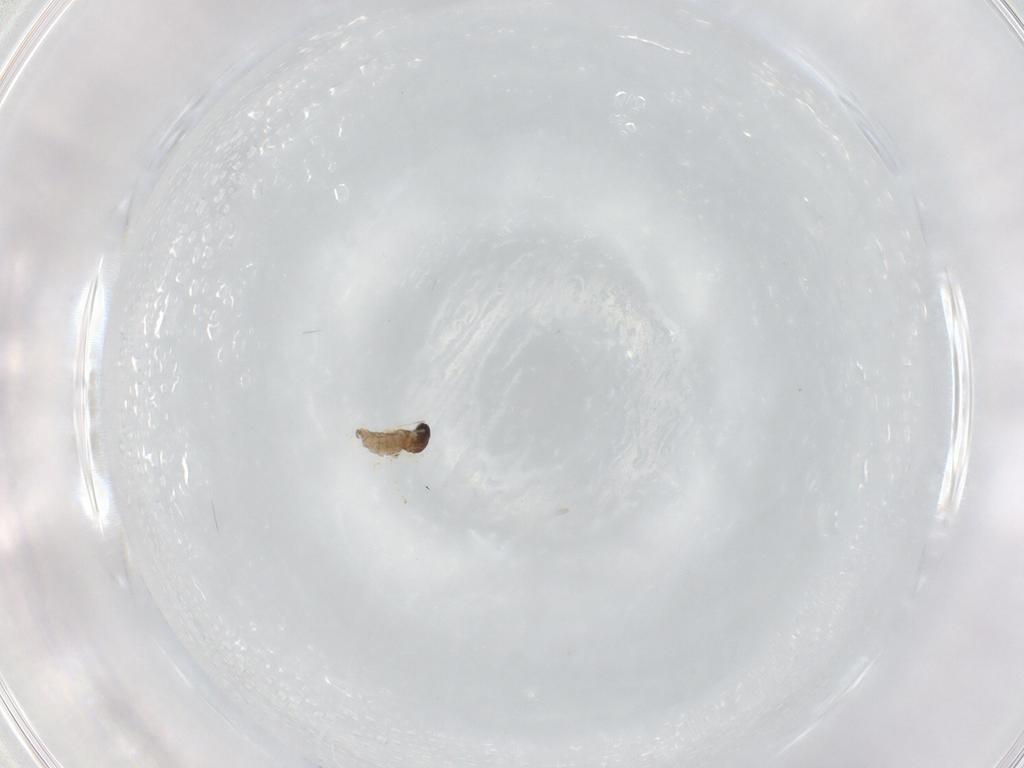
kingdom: Animalia
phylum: Arthropoda
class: Insecta
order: Diptera
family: Cecidomyiidae
